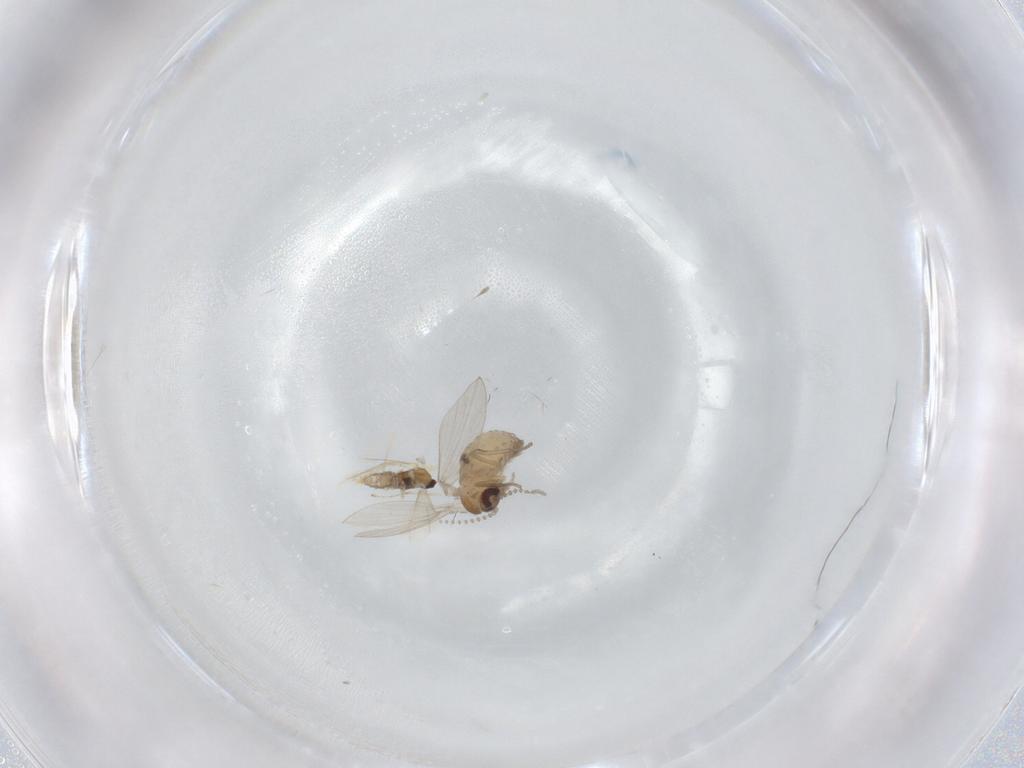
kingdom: Animalia
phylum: Arthropoda
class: Insecta
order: Diptera
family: Psychodidae
